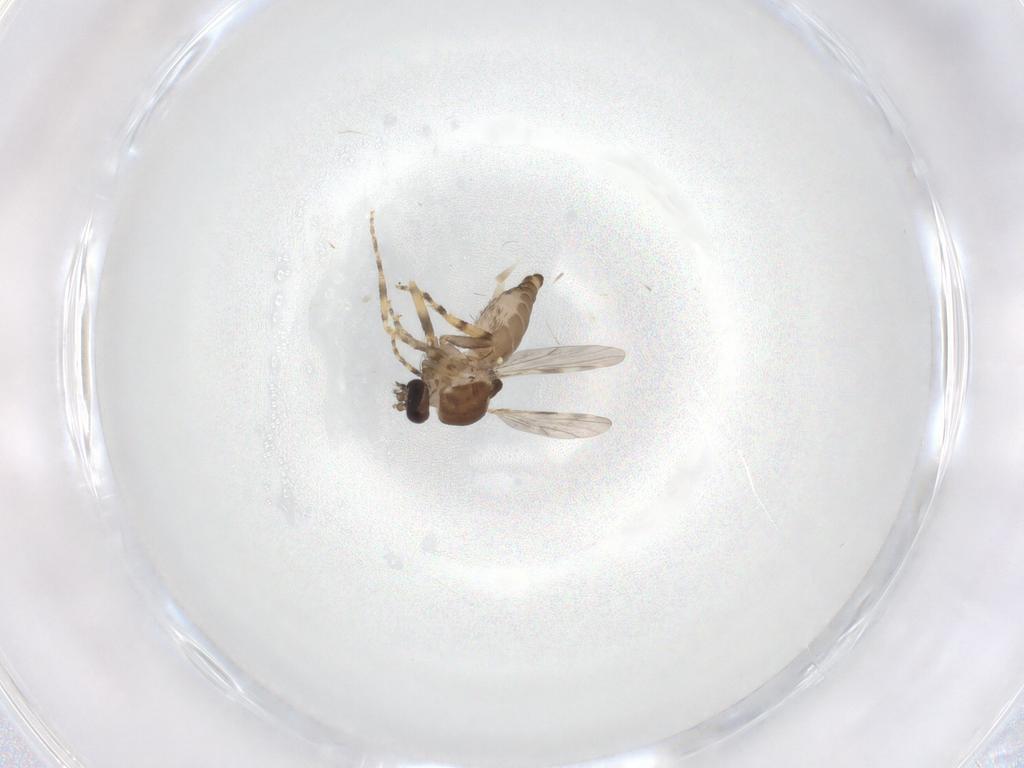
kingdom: Animalia
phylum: Arthropoda
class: Insecta
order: Diptera
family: Ceratopogonidae
